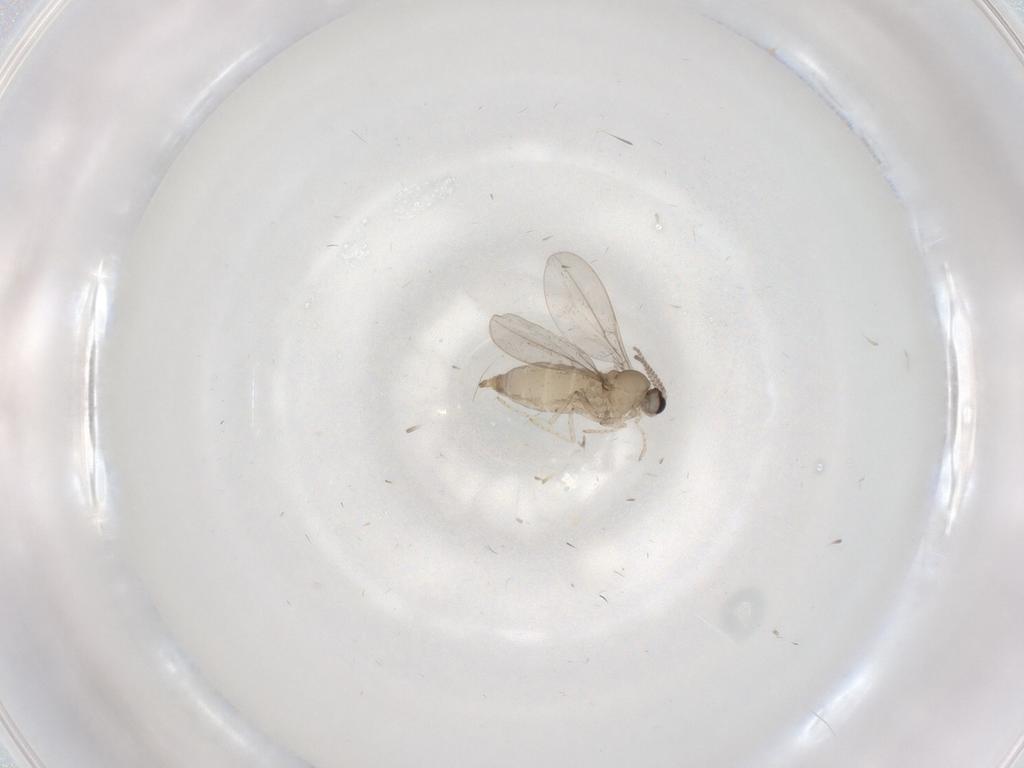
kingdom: Animalia
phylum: Arthropoda
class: Insecta
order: Diptera
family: Cecidomyiidae
